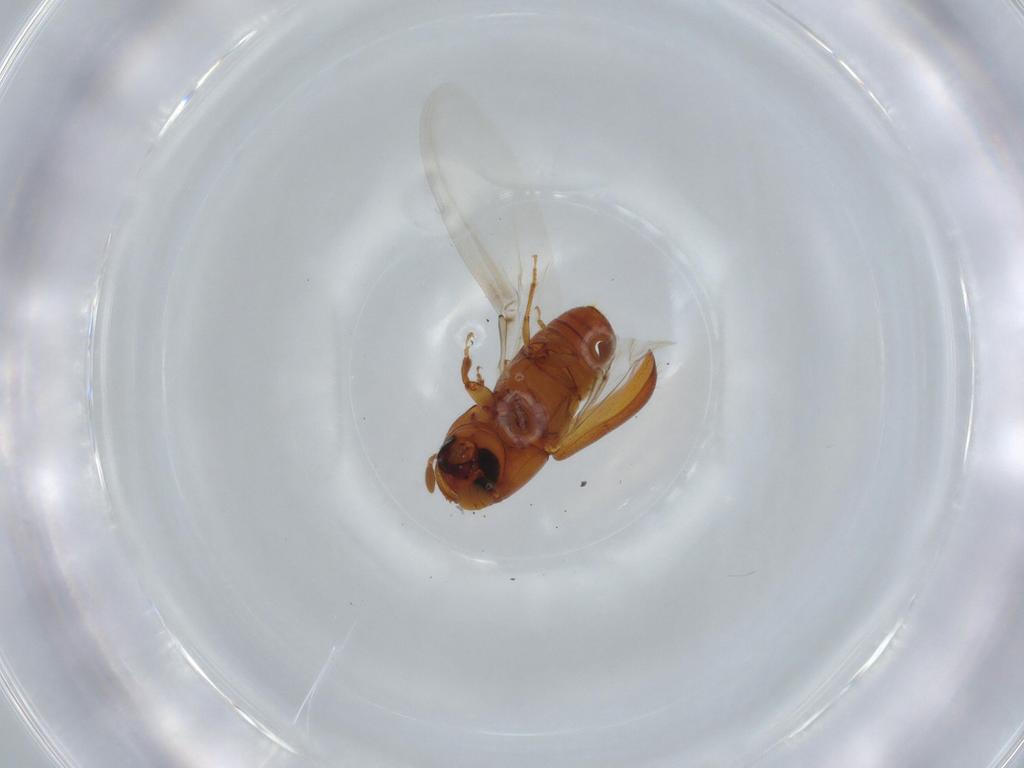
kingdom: Animalia
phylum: Arthropoda
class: Insecta
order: Coleoptera
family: Curculionidae
